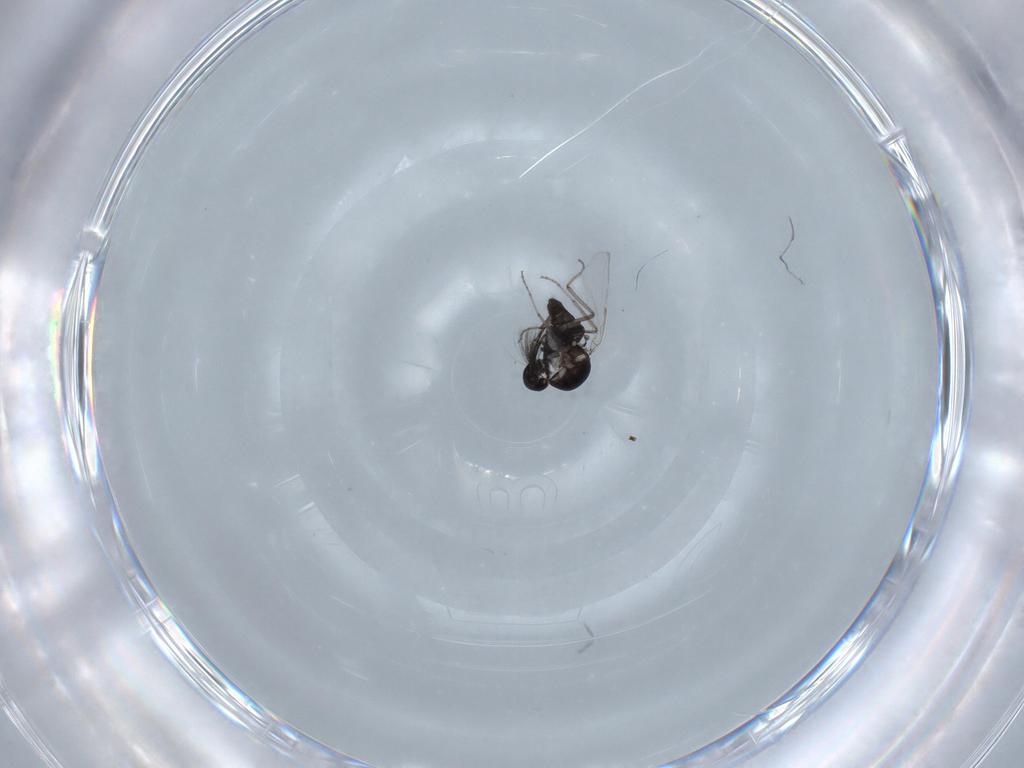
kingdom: Animalia
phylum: Arthropoda
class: Insecta
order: Diptera
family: Ceratopogonidae
